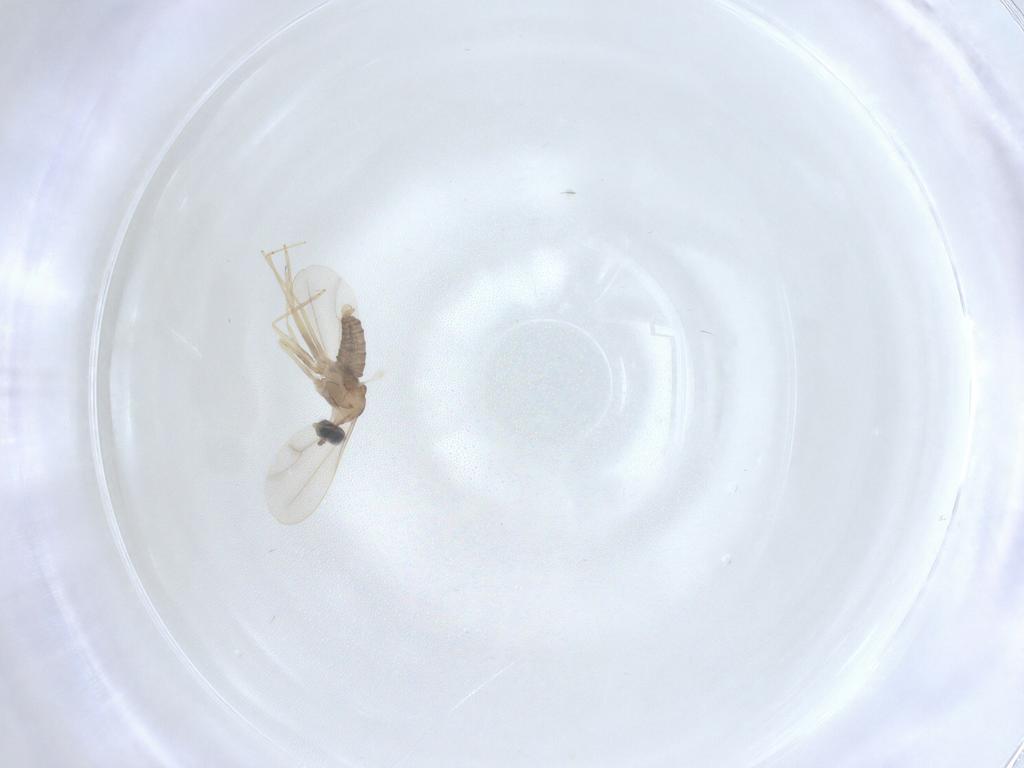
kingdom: Animalia
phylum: Arthropoda
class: Insecta
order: Diptera
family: Cecidomyiidae
